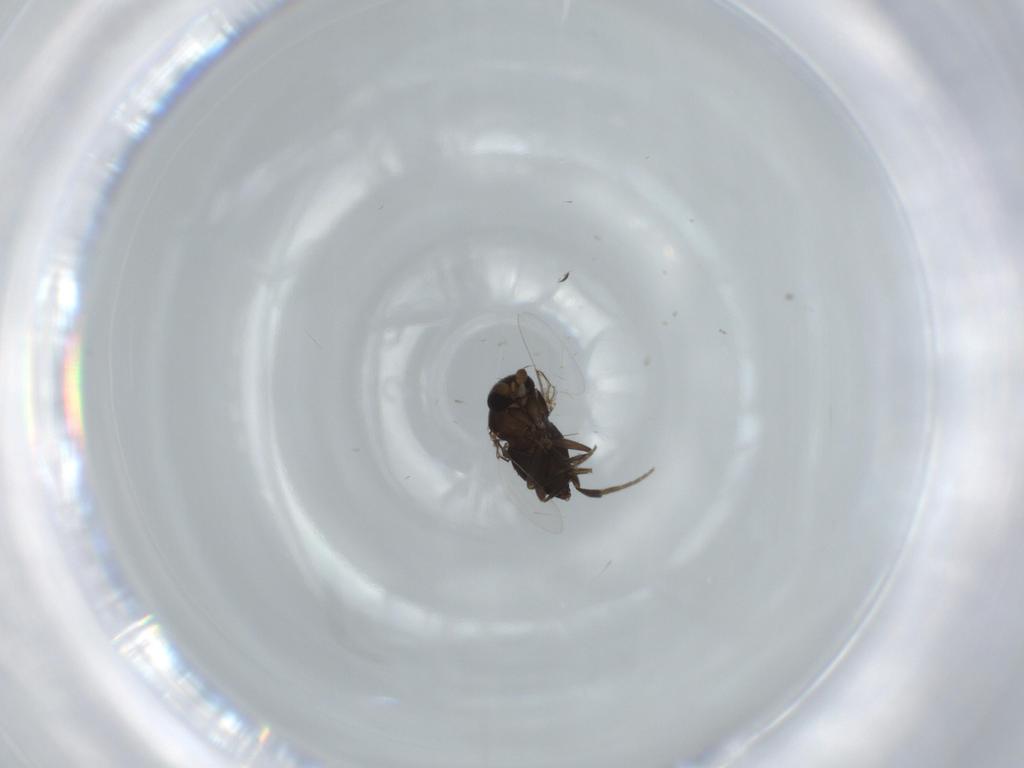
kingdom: Animalia
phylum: Arthropoda
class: Insecta
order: Diptera
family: Phoridae
